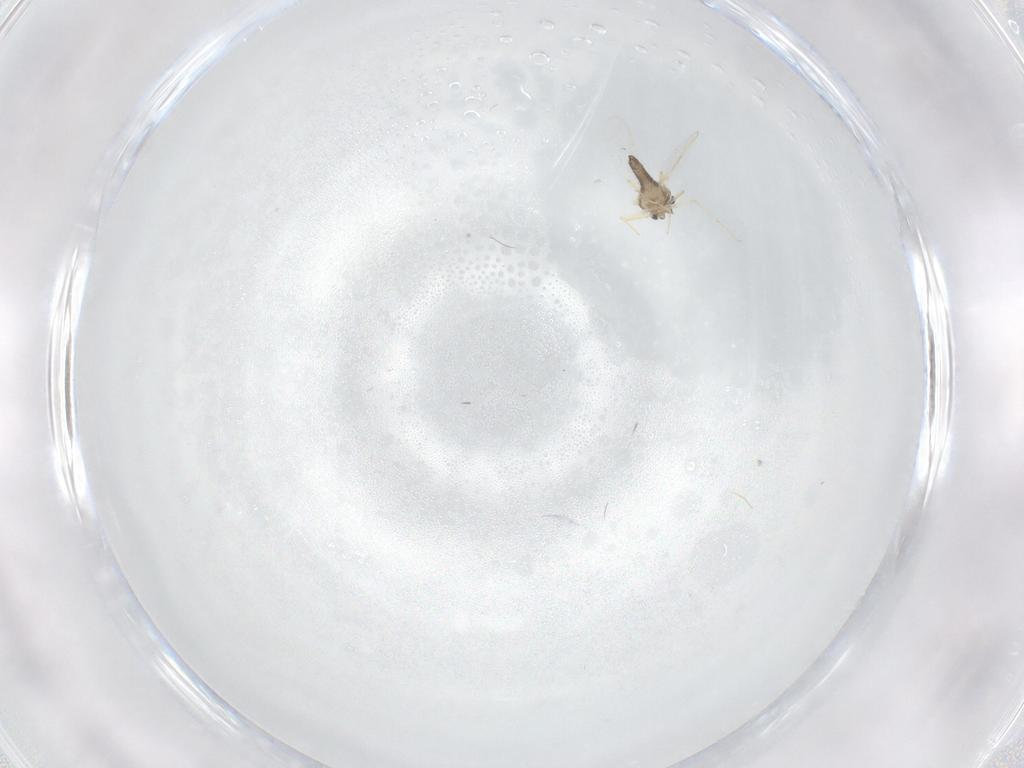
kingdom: Animalia
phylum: Arthropoda
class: Insecta
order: Diptera
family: Chironomidae
